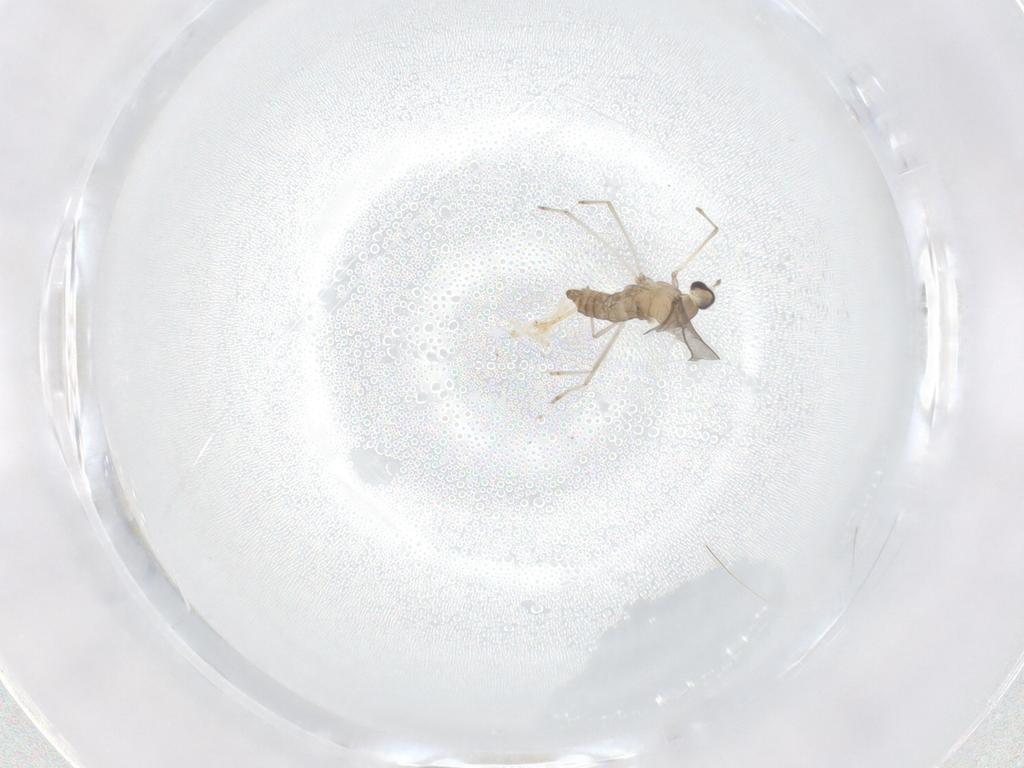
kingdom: Animalia
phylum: Arthropoda
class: Insecta
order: Diptera
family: Cecidomyiidae
